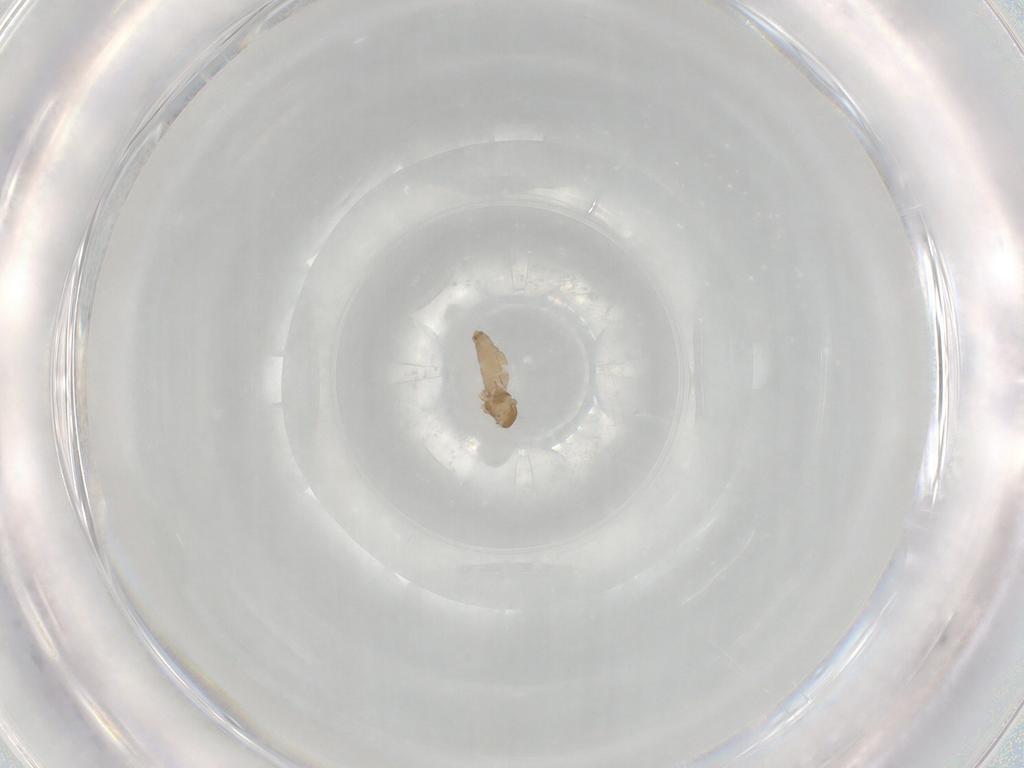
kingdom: Animalia
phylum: Arthropoda
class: Insecta
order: Diptera
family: Cecidomyiidae
